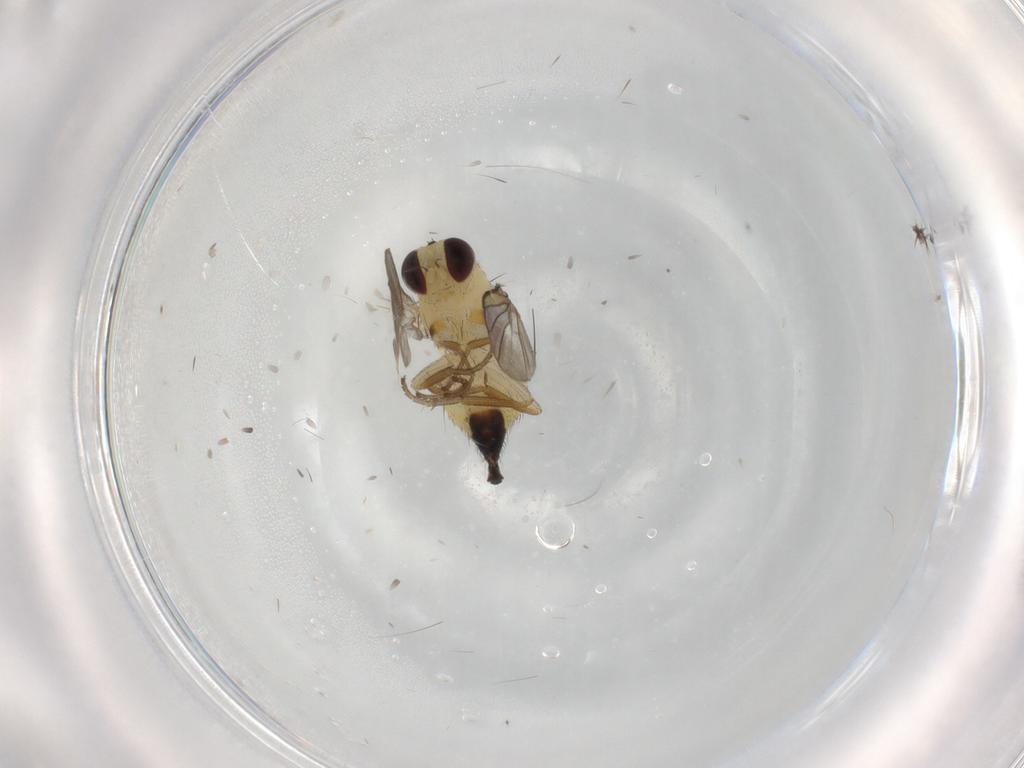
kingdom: Animalia
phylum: Arthropoda
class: Insecta
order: Diptera
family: Agromyzidae
